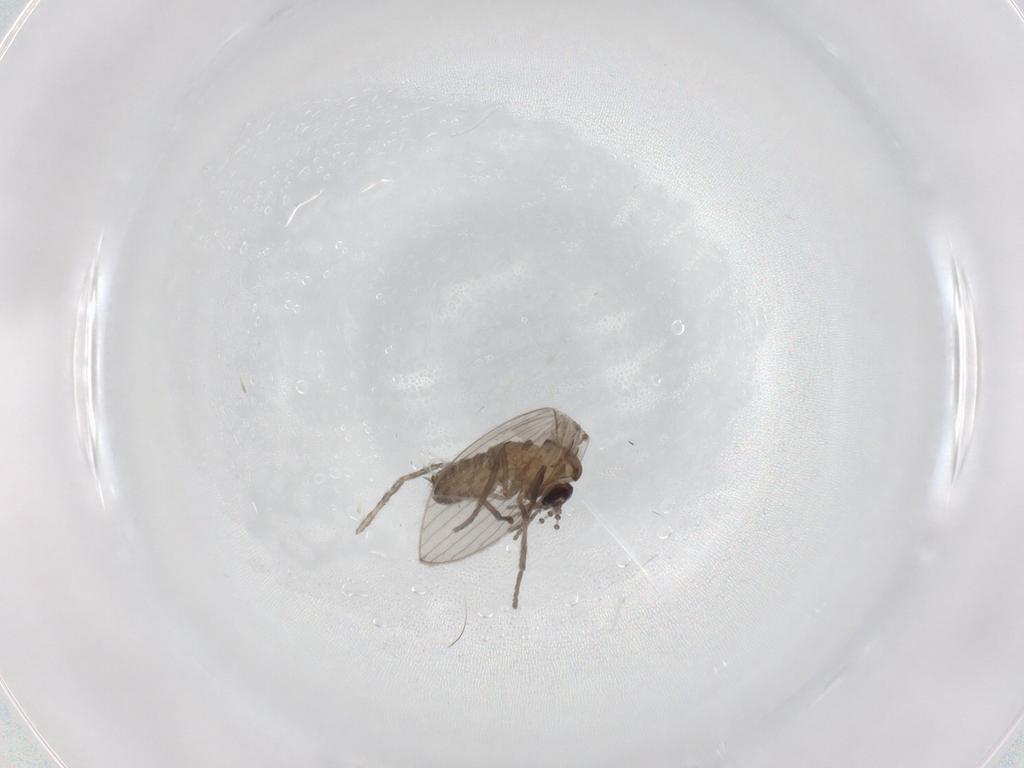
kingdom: Animalia
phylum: Arthropoda
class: Insecta
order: Diptera
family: Psychodidae
